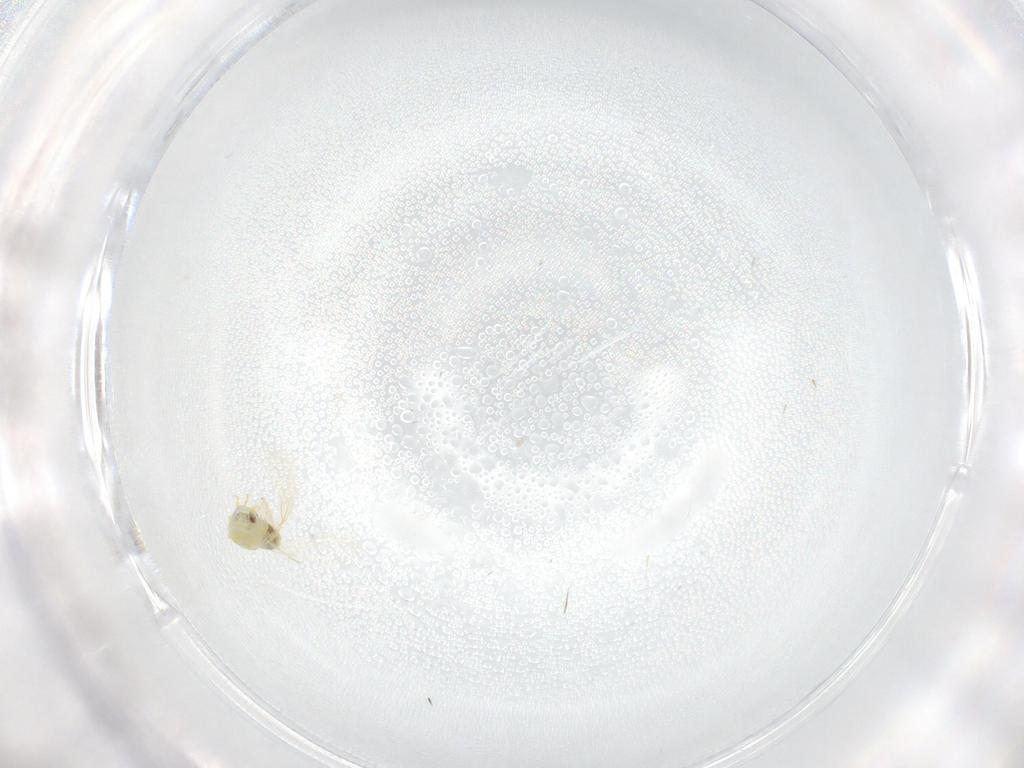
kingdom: Animalia
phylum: Arthropoda
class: Insecta
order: Hemiptera
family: Aleyrodidae
